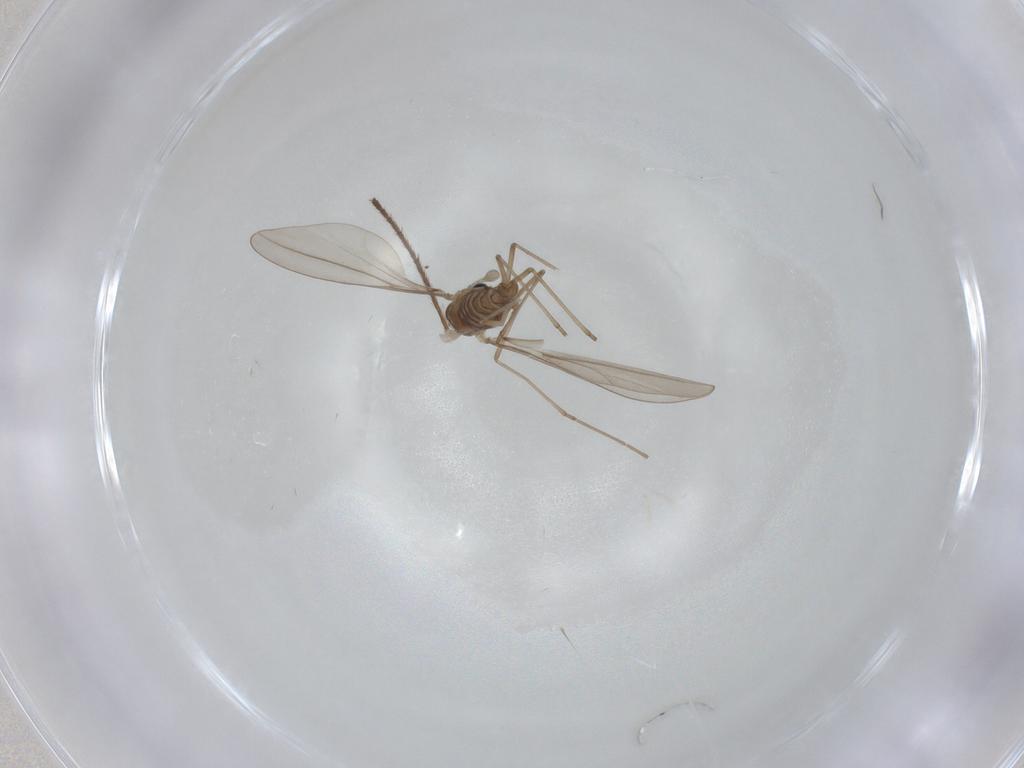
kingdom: Animalia
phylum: Arthropoda
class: Insecta
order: Diptera
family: Cecidomyiidae
